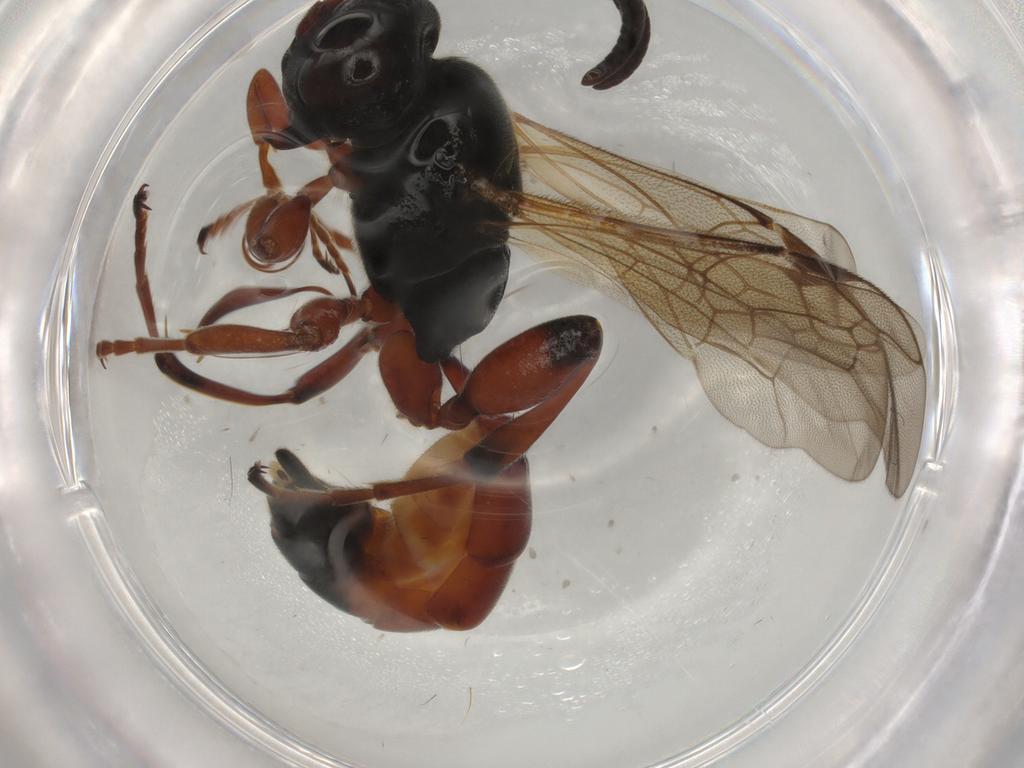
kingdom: Animalia
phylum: Arthropoda
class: Insecta
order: Hymenoptera
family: Ichneumonidae
